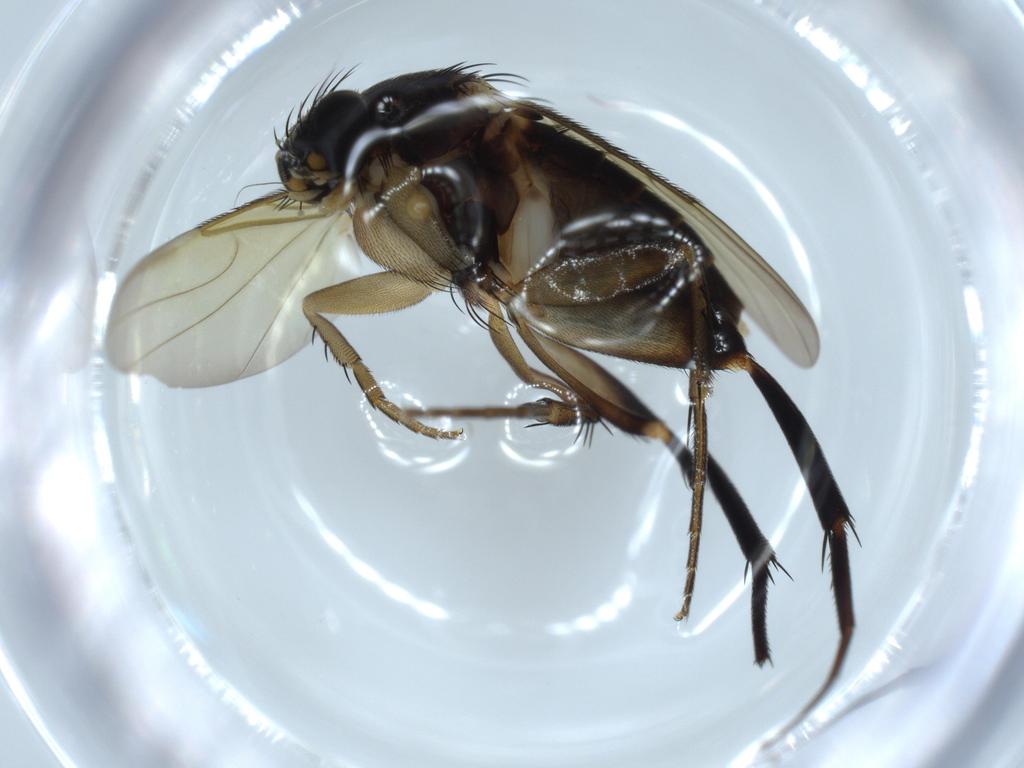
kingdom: Animalia
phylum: Arthropoda
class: Insecta
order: Diptera
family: Phoridae
